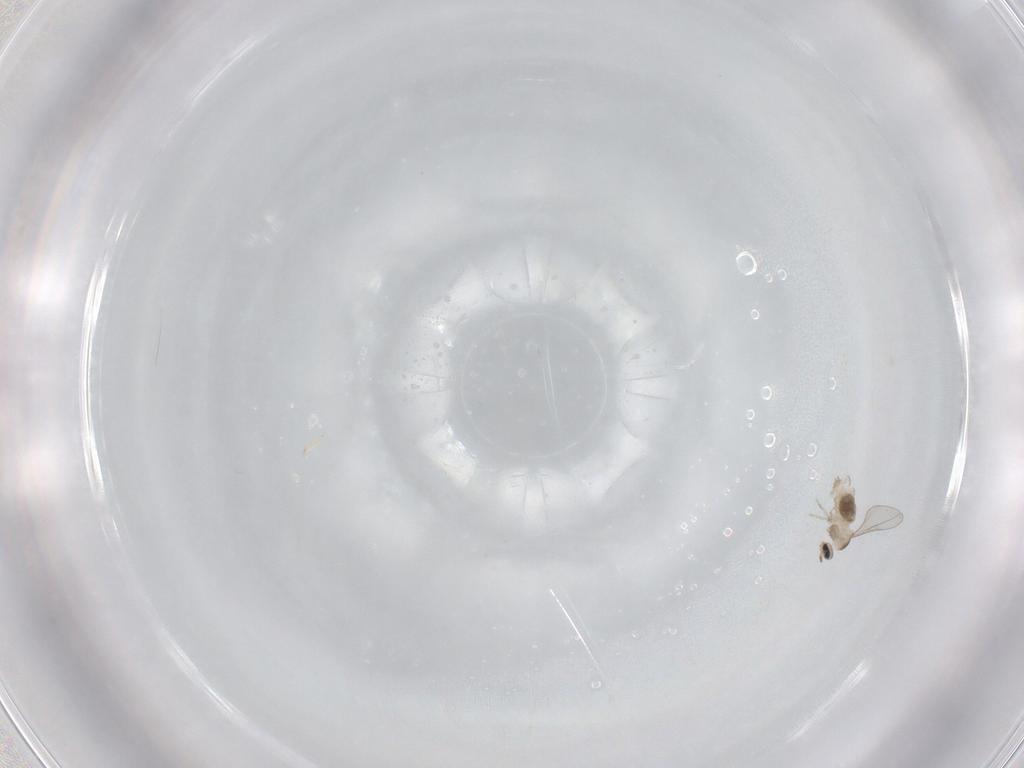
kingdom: Animalia
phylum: Arthropoda
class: Insecta
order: Diptera
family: Cecidomyiidae
